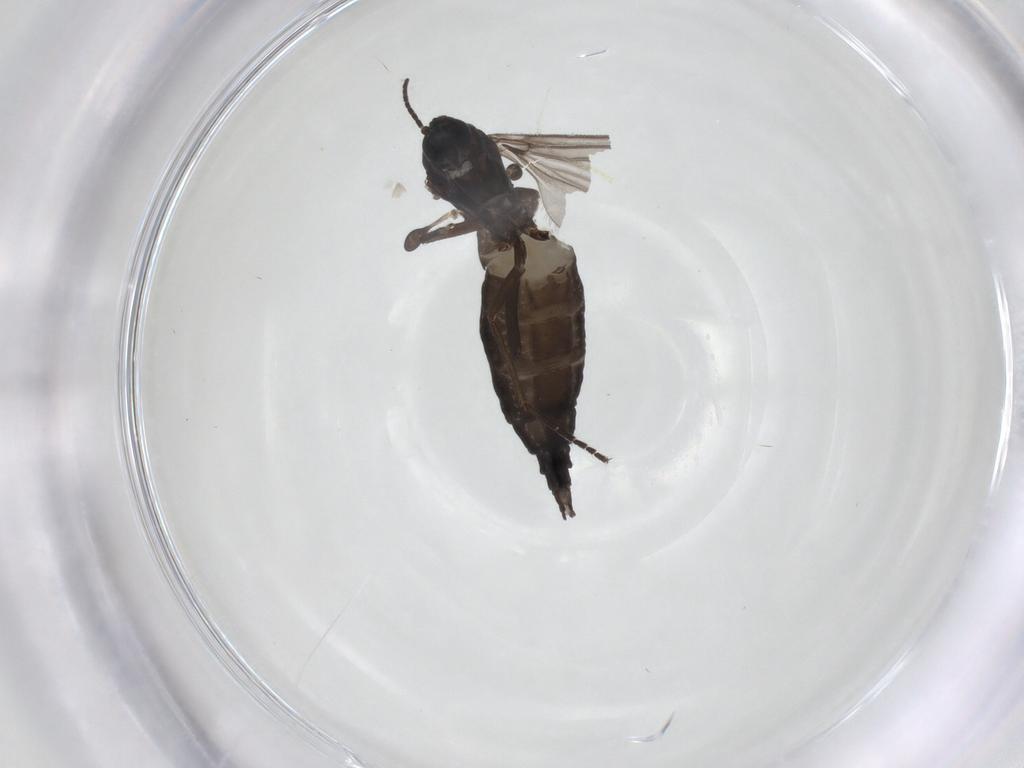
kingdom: Animalia
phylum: Arthropoda
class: Insecta
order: Diptera
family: Sciaridae
